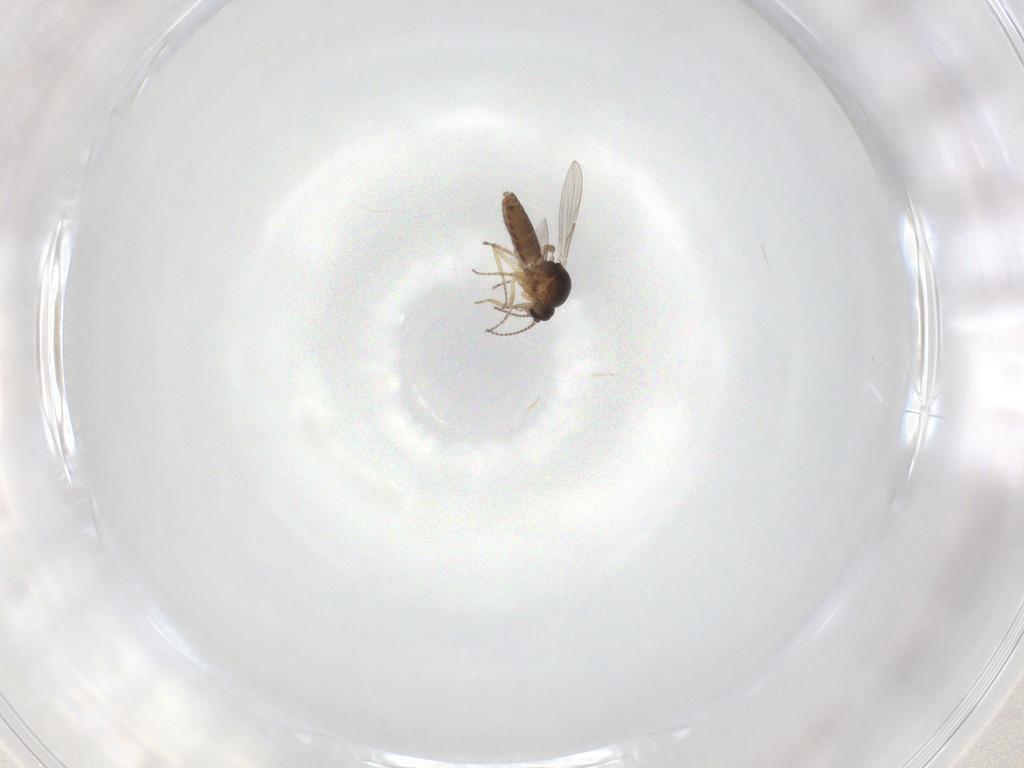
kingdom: Animalia
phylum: Arthropoda
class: Insecta
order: Diptera
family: Ceratopogonidae
